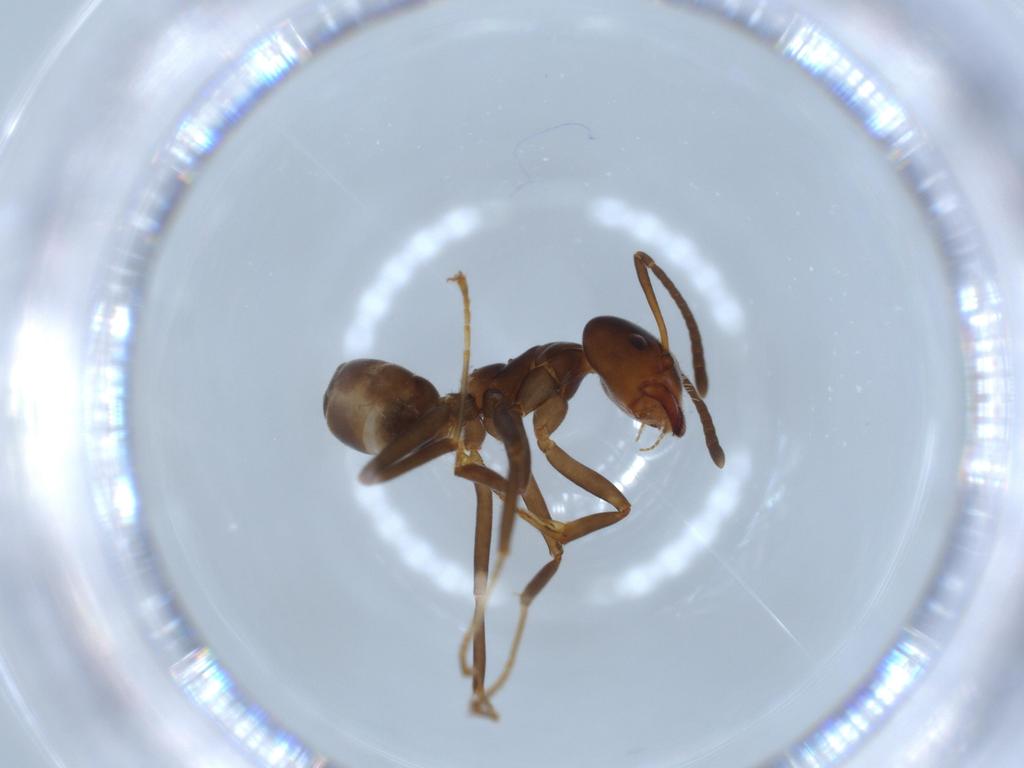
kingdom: Animalia
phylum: Arthropoda
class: Insecta
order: Hymenoptera
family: Formicidae
